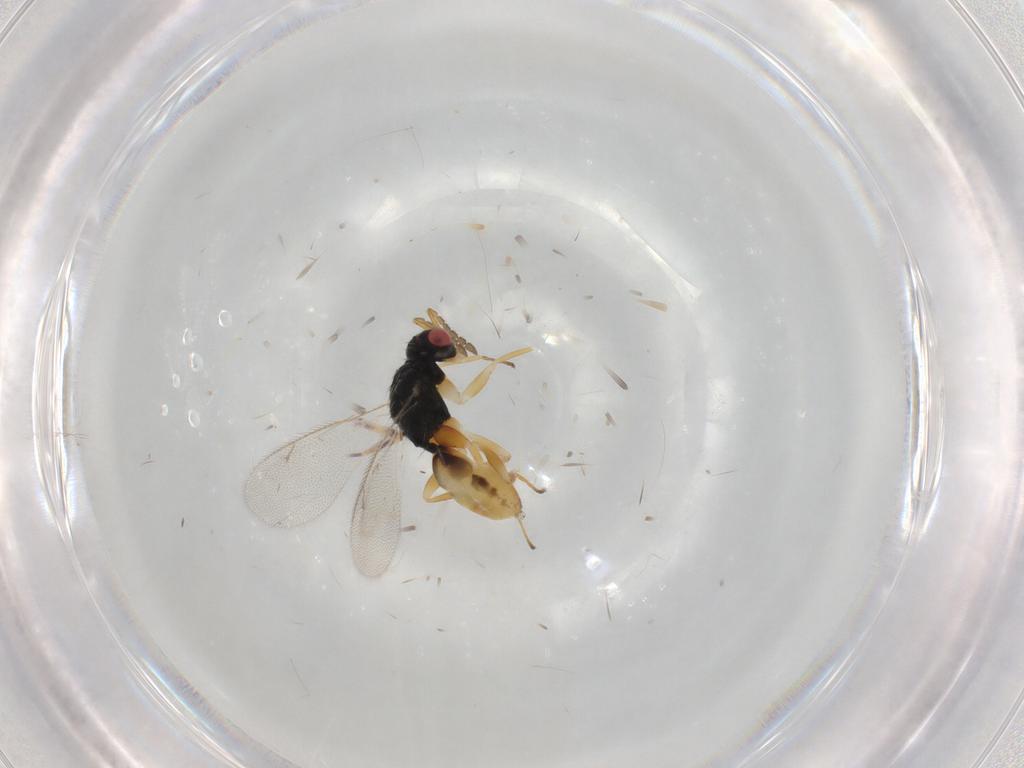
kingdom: Animalia
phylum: Arthropoda
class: Insecta
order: Hymenoptera
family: Eulophidae
